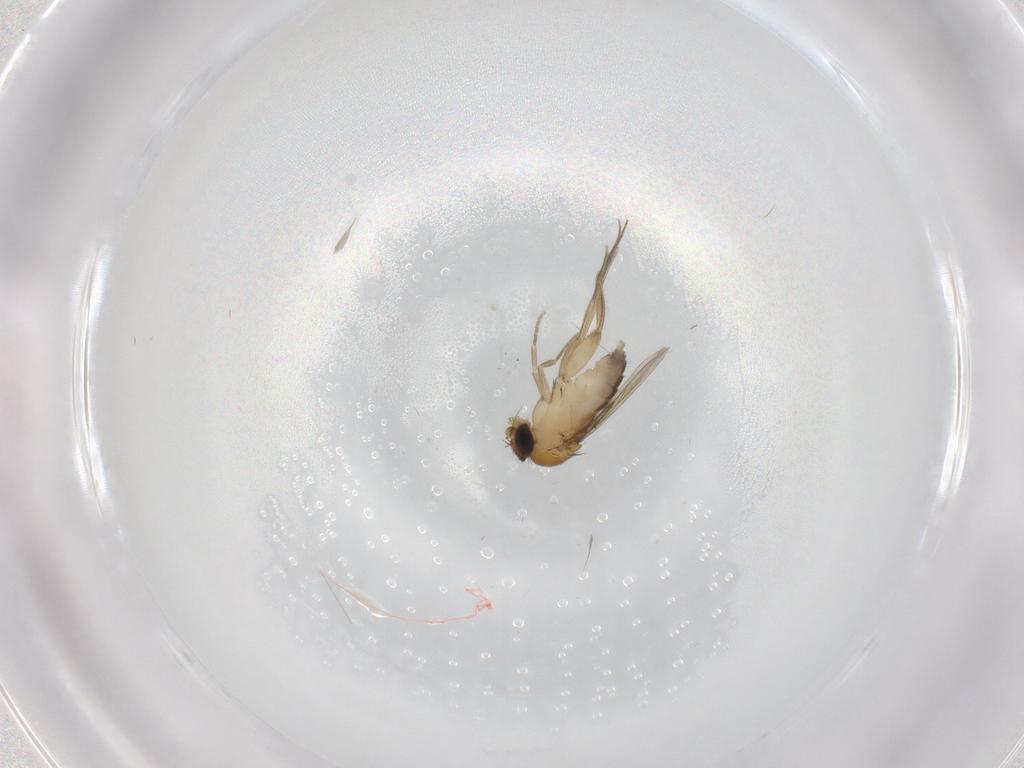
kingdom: Animalia
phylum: Arthropoda
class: Insecta
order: Diptera
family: Phoridae
